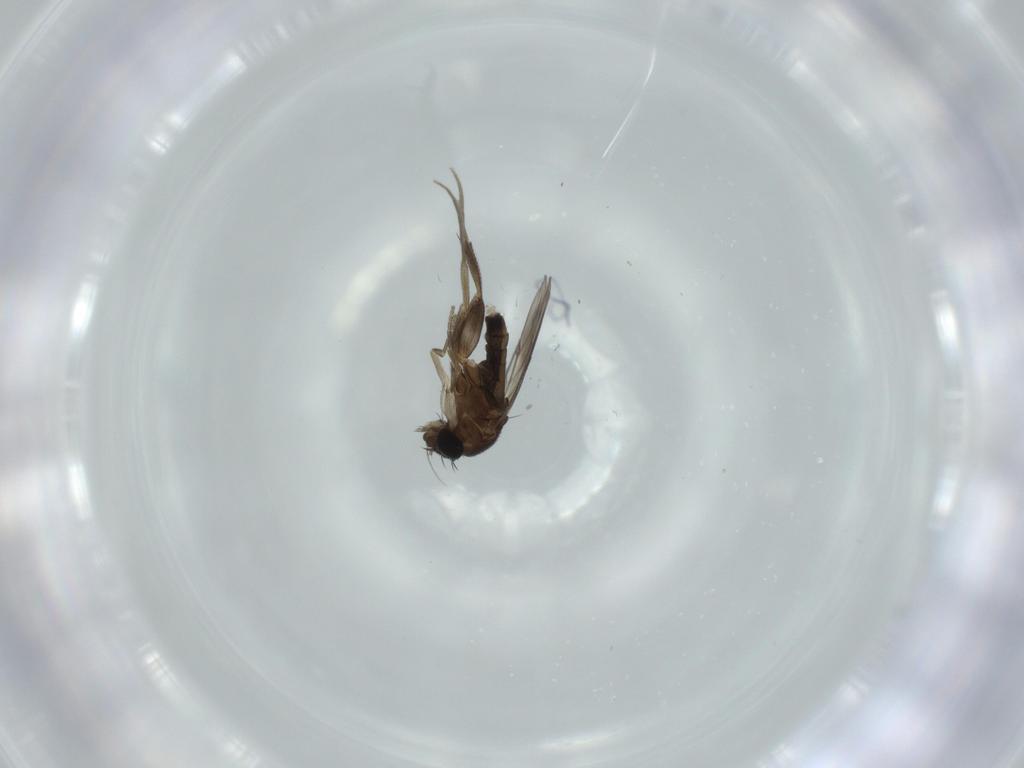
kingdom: Animalia
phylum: Arthropoda
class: Insecta
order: Diptera
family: Phoridae
